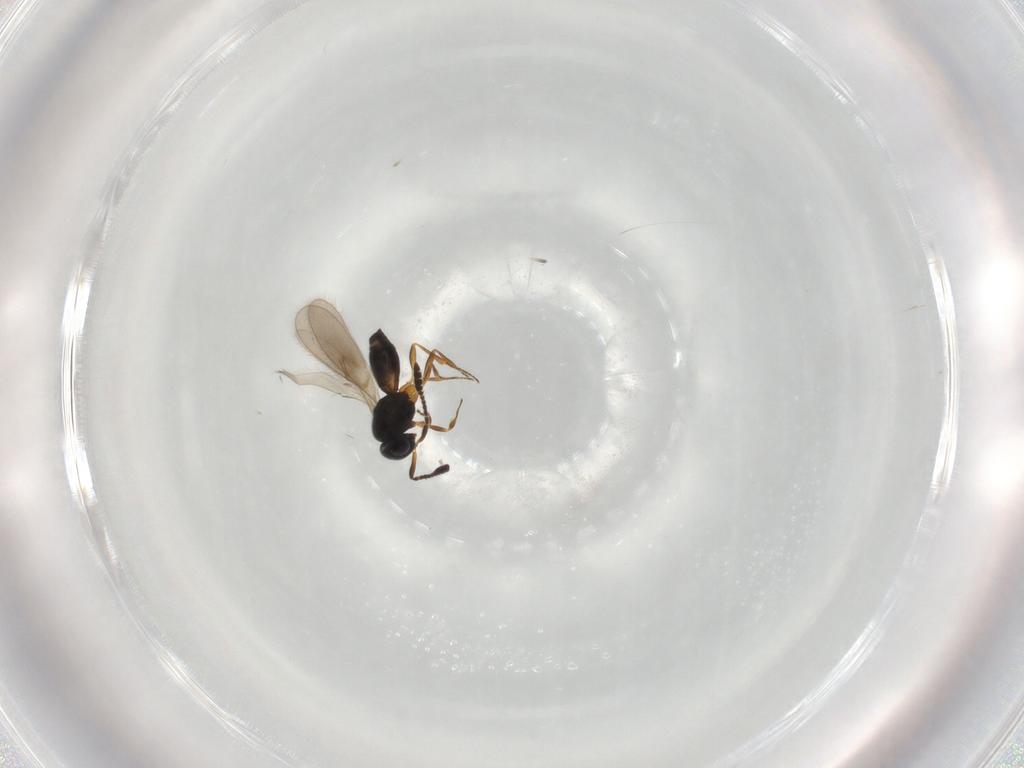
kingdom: Animalia
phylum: Arthropoda
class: Insecta
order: Hymenoptera
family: Scelionidae
